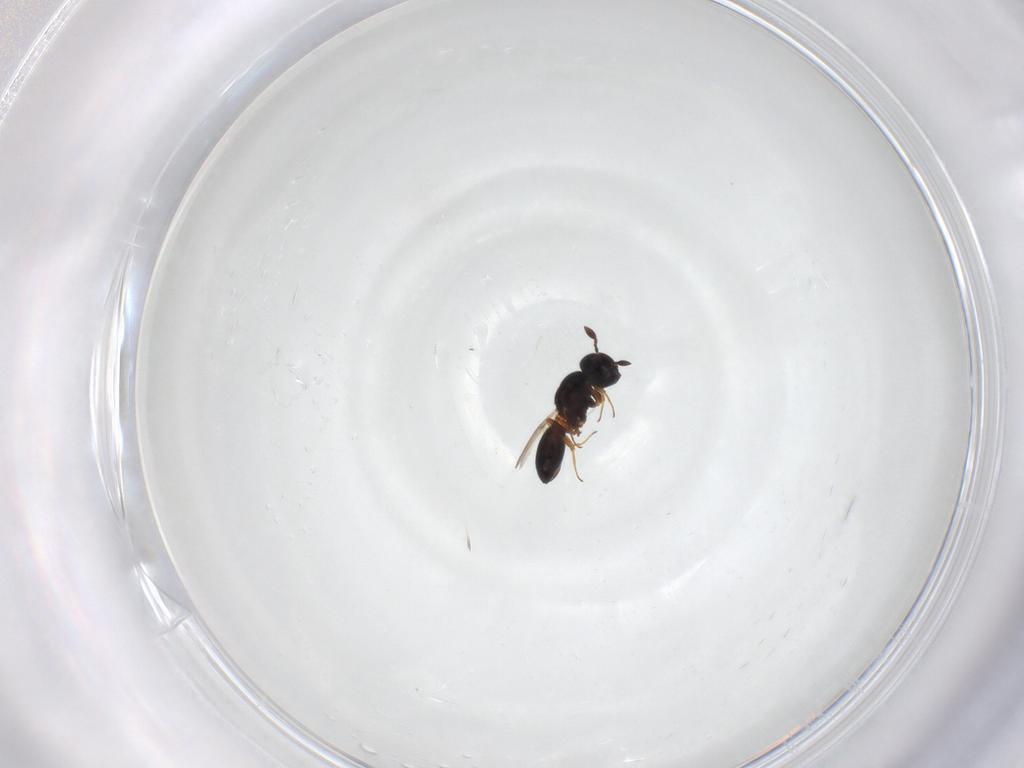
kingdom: Animalia
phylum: Arthropoda
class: Insecta
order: Hymenoptera
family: Scelionidae
